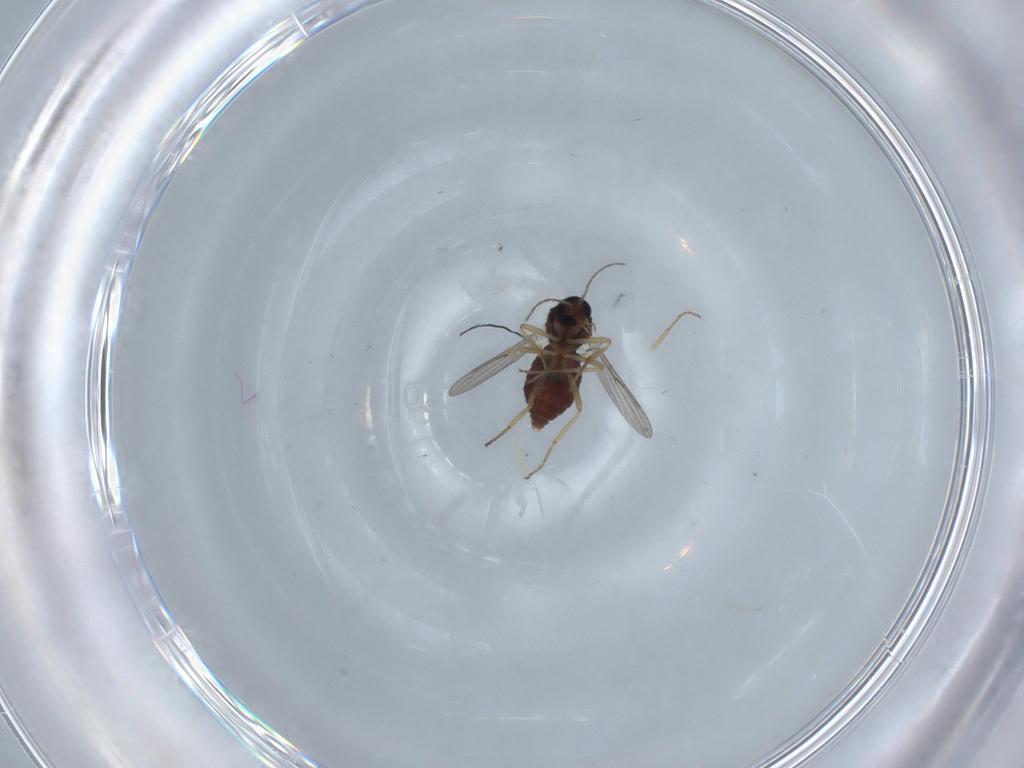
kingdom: Animalia
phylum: Arthropoda
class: Insecta
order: Diptera
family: Ceratopogonidae
